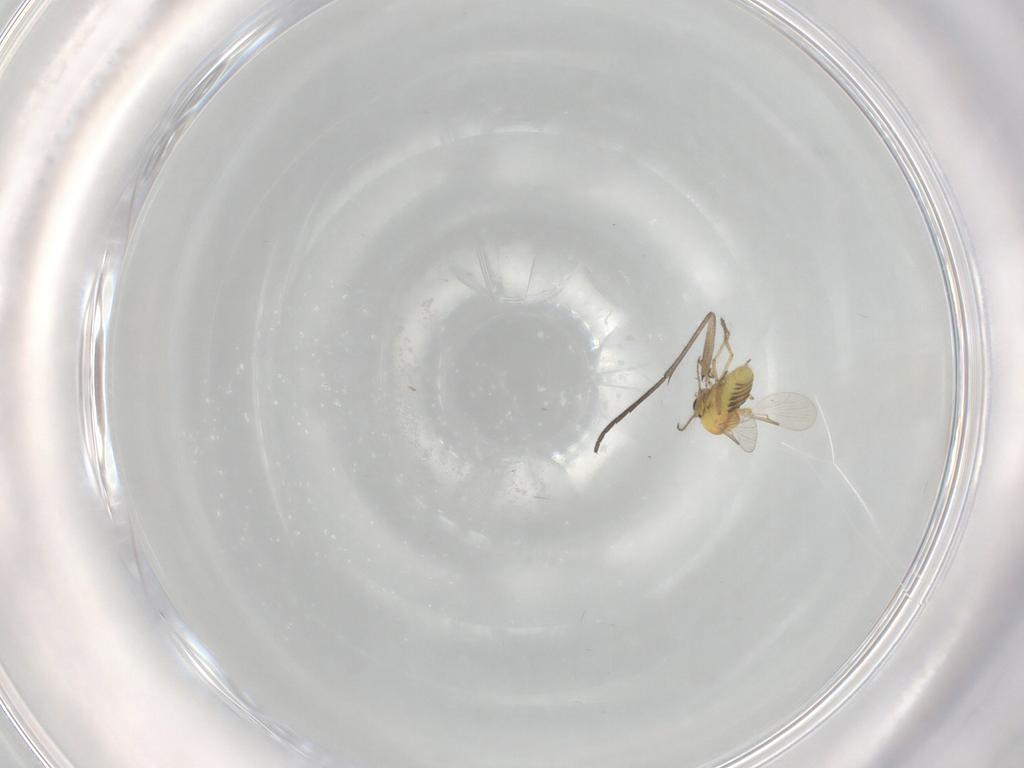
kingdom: Animalia
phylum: Arthropoda
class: Insecta
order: Diptera
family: Sciaridae
